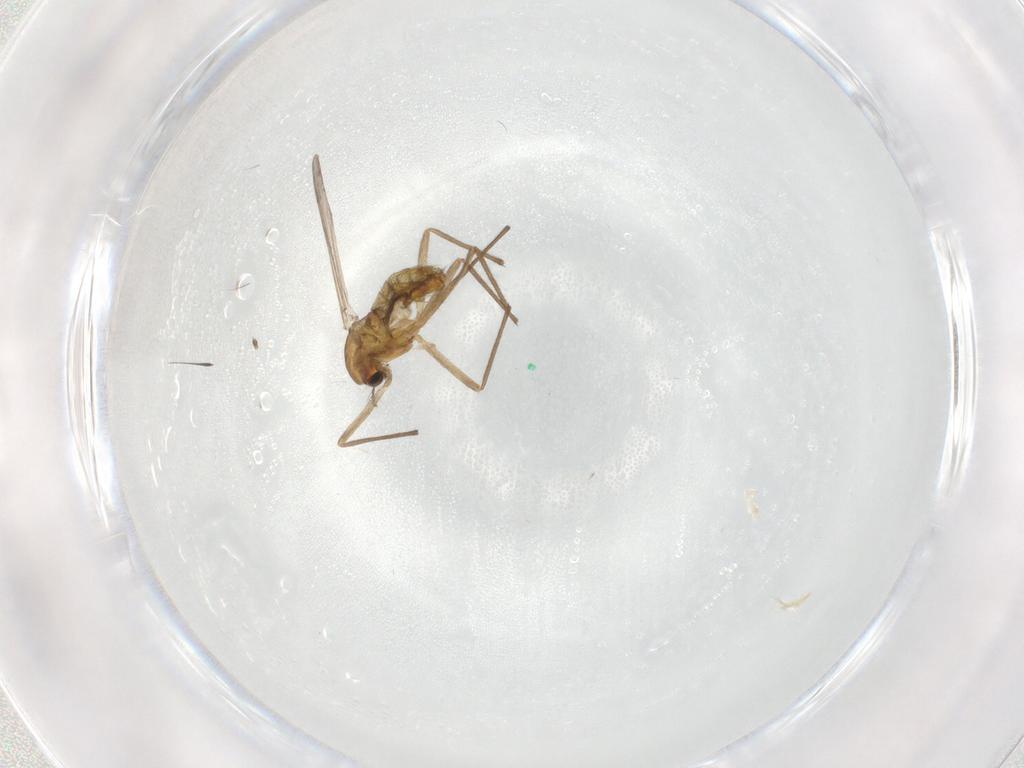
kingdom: Animalia
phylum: Arthropoda
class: Insecta
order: Diptera
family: Chironomidae
